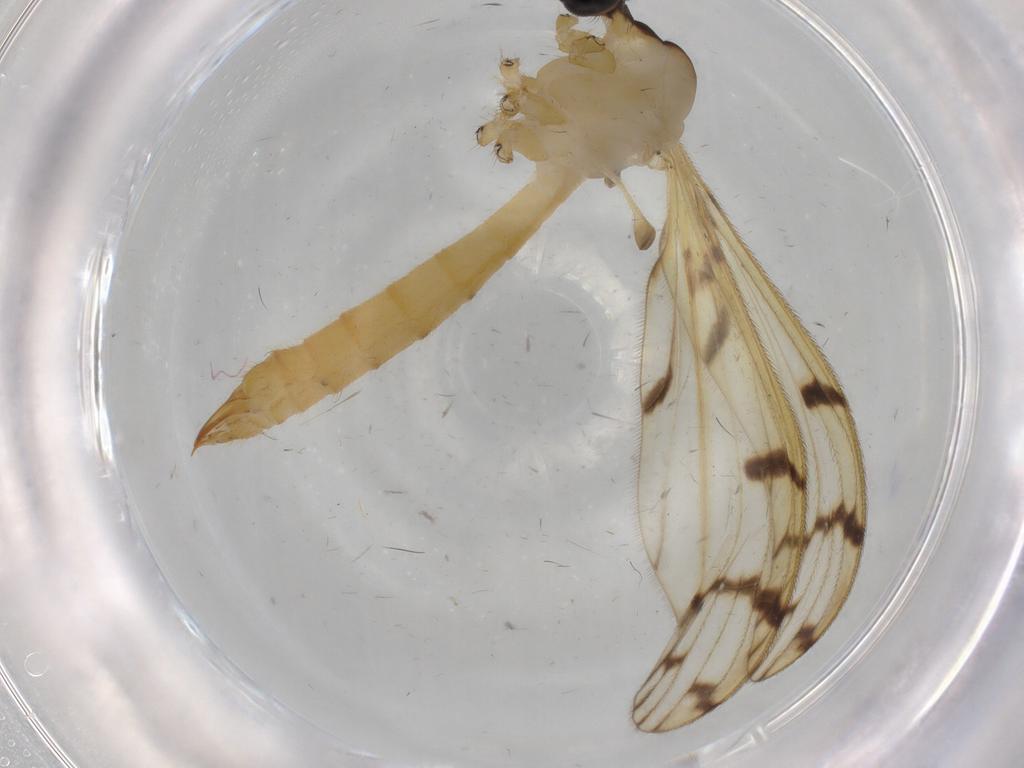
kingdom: Animalia
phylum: Arthropoda
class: Insecta
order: Diptera
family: Limoniidae
